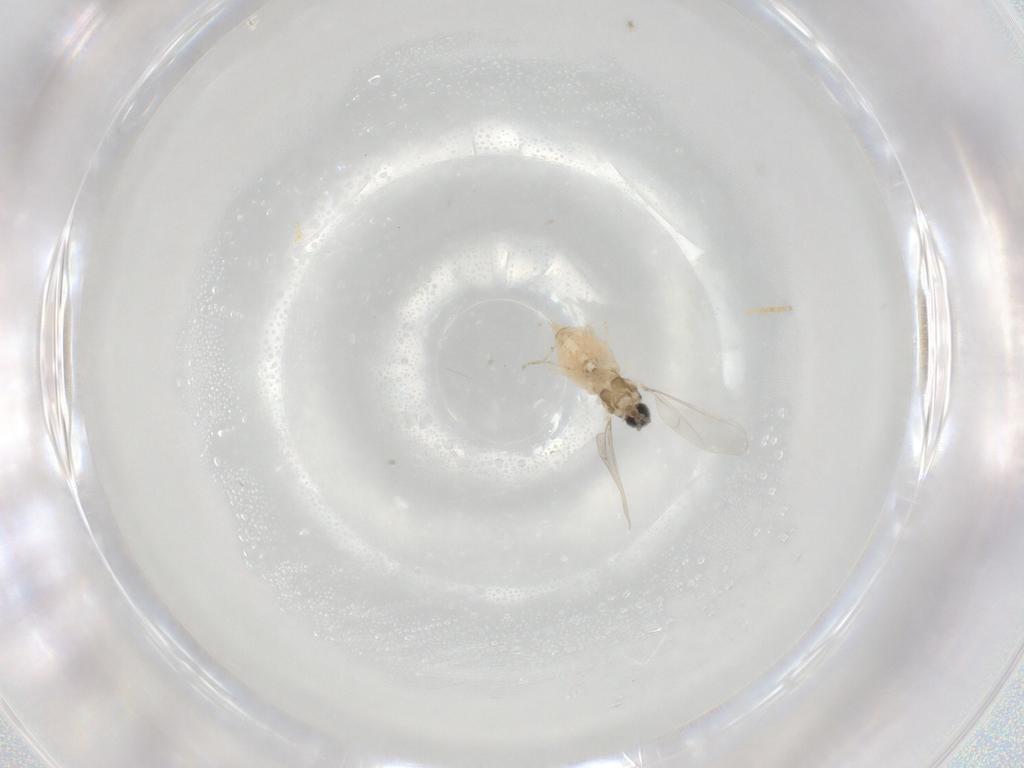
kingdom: Animalia
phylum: Arthropoda
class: Insecta
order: Diptera
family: Cecidomyiidae
